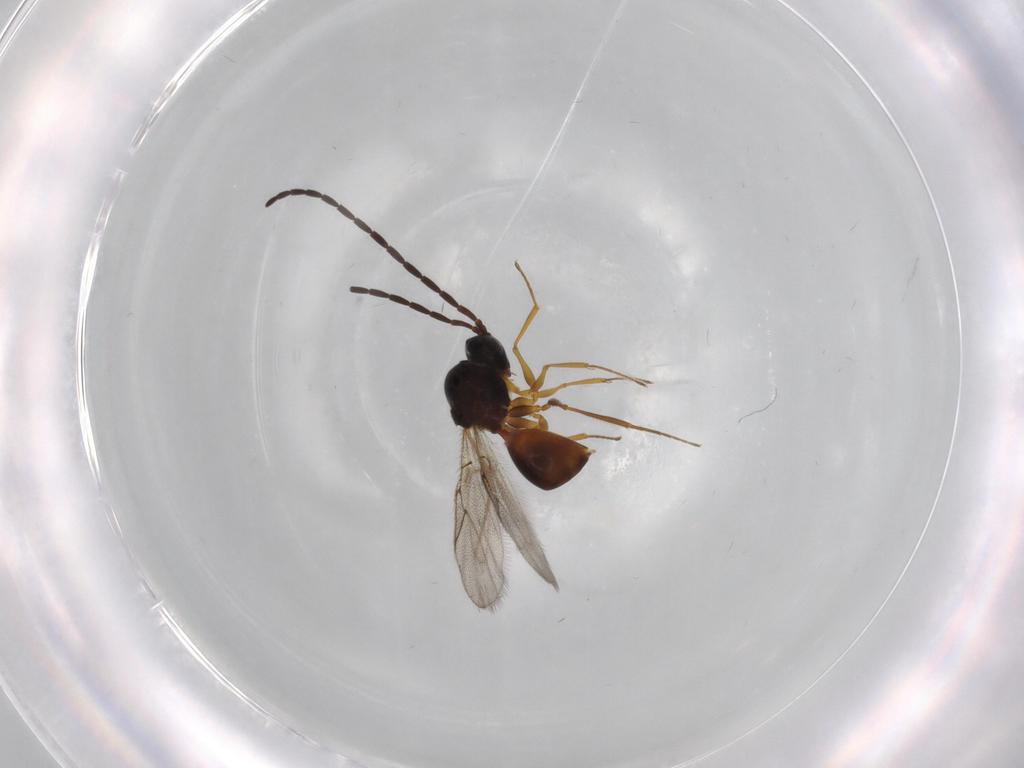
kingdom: Animalia
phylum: Arthropoda
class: Insecta
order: Hymenoptera
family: Figitidae
